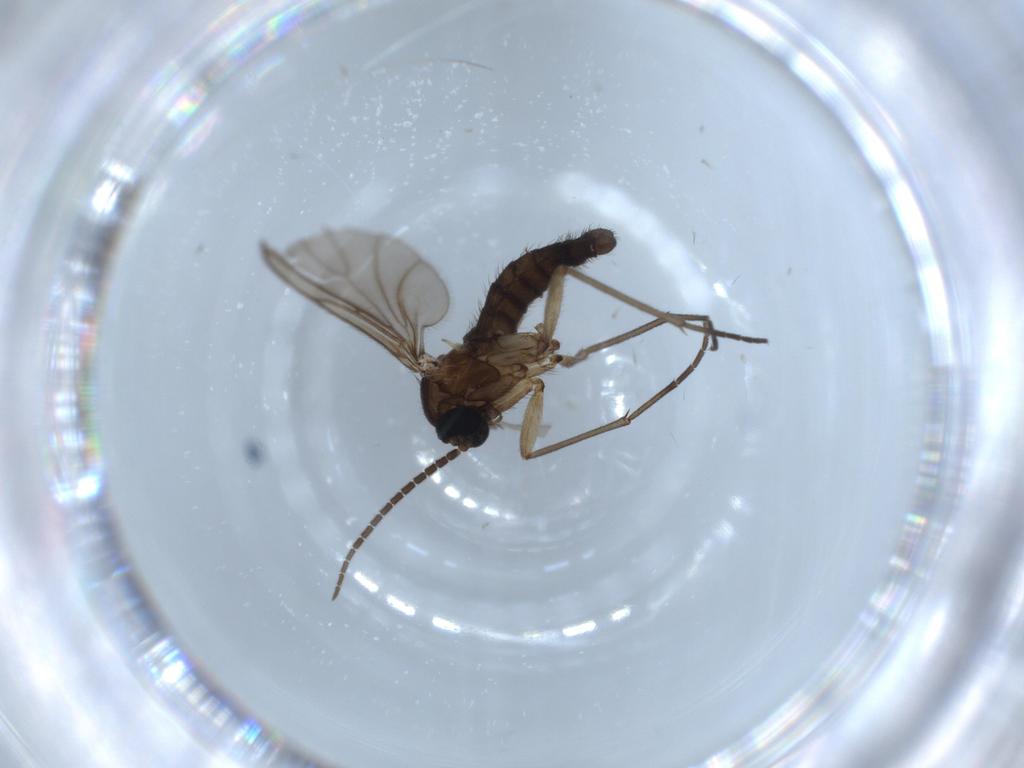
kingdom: Animalia
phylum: Arthropoda
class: Insecta
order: Diptera
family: Sciaridae
